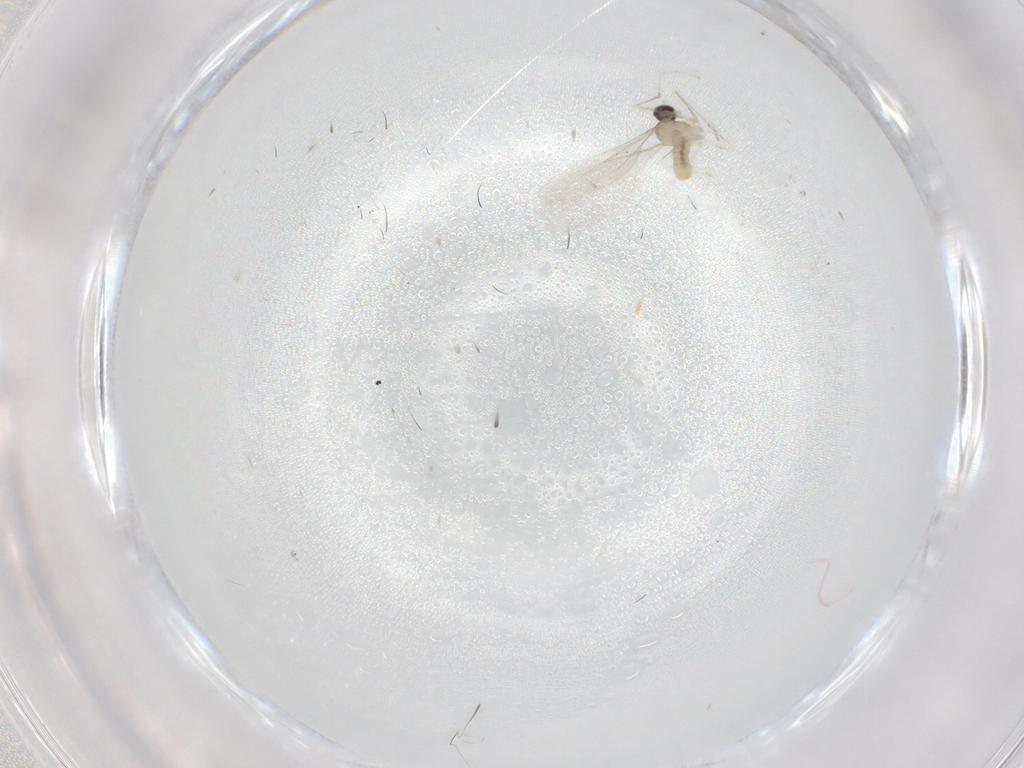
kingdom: Animalia
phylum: Arthropoda
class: Insecta
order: Diptera
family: Cecidomyiidae
